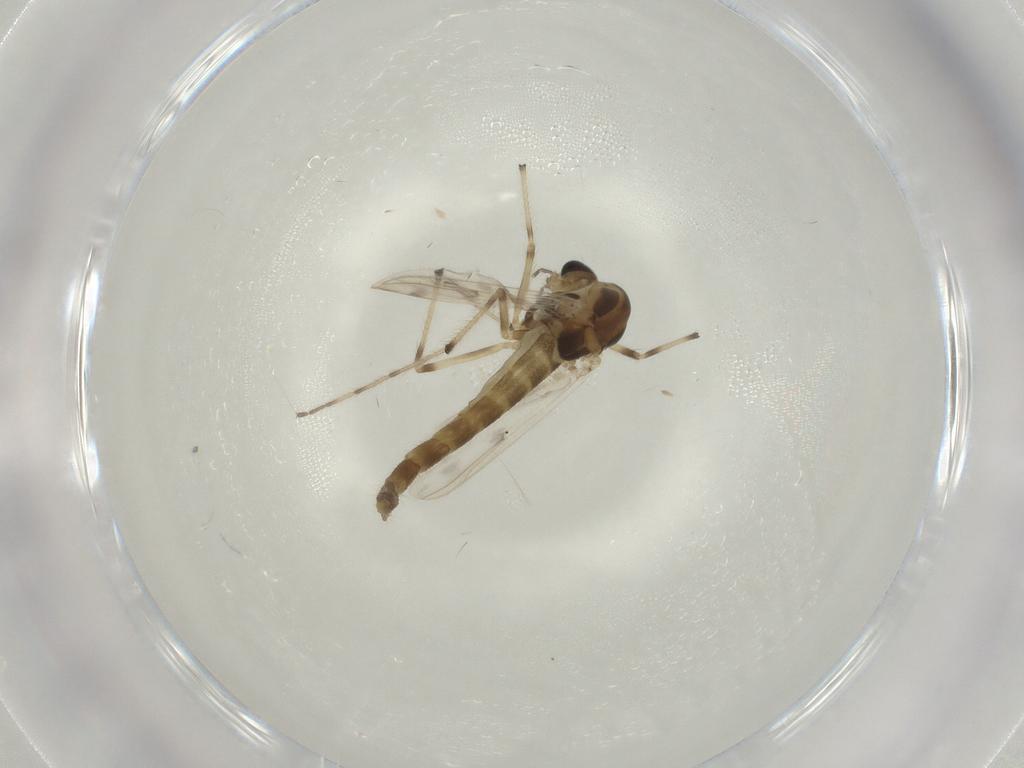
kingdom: Animalia
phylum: Arthropoda
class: Insecta
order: Diptera
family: Chironomidae
